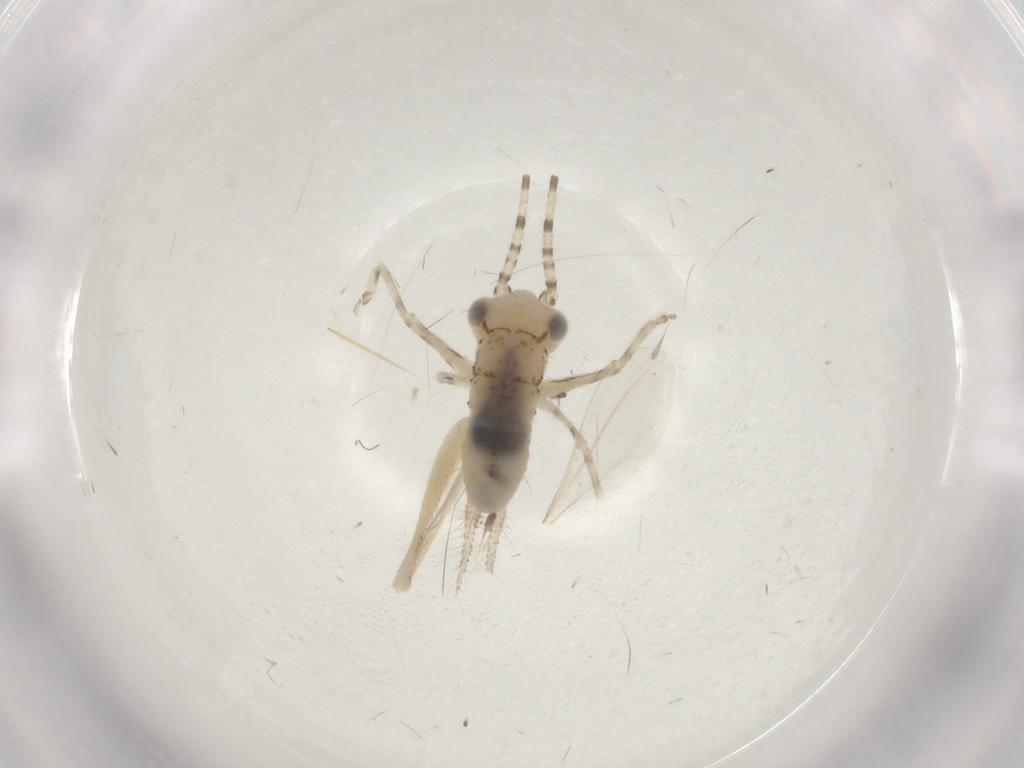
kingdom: Animalia
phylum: Arthropoda
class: Insecta
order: Orthoptera
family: Trigonidiidae
